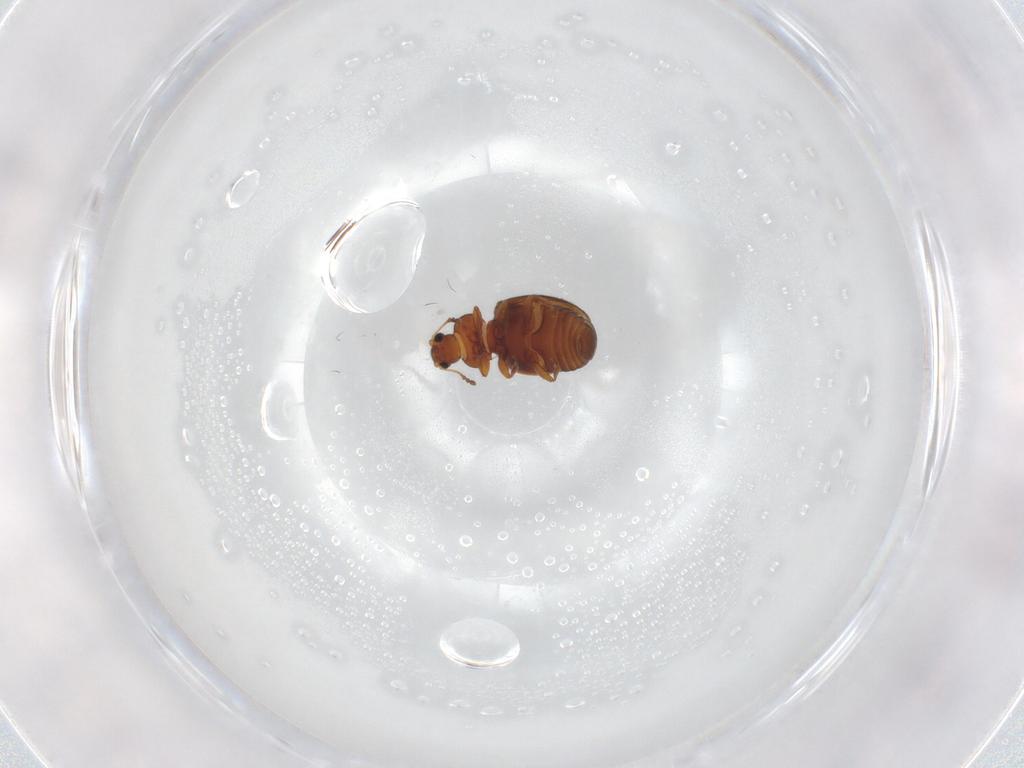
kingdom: Animalia
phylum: Arthropoda
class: Insecta
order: Coleoptera
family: Latridiidae
